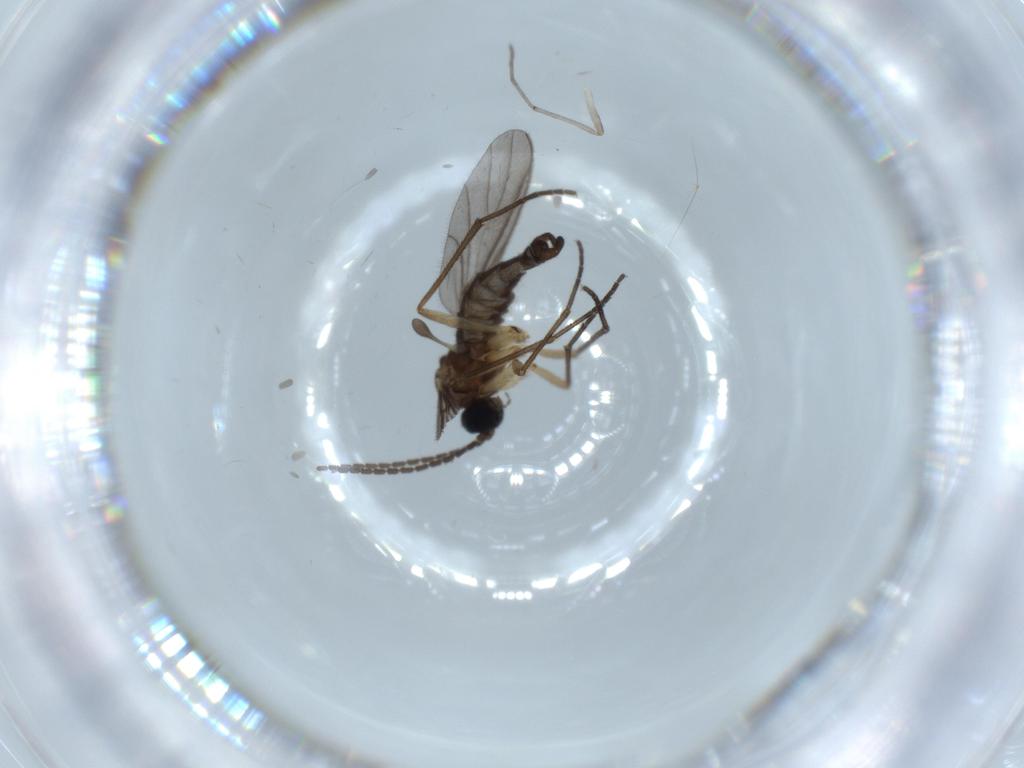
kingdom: Animalia
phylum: Arthropoda
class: Insecta
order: Diptera
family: Chironomidae
